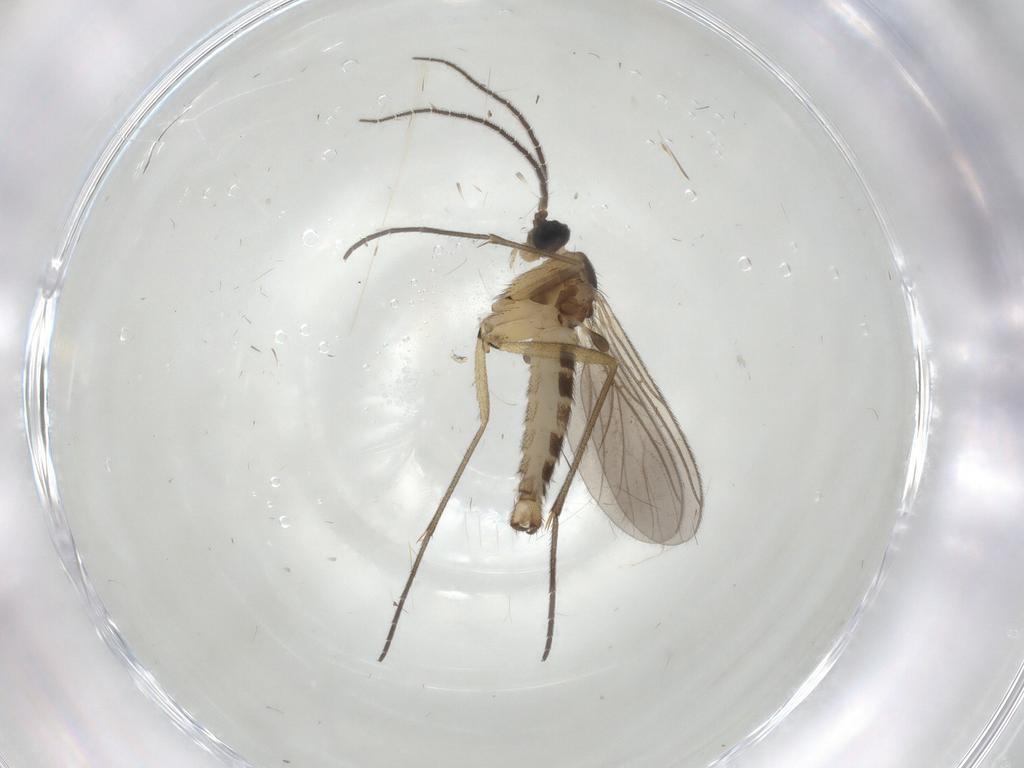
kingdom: Animalia
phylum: Arthropoda
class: Insecta
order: Diptera
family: Cecidomyiidae
